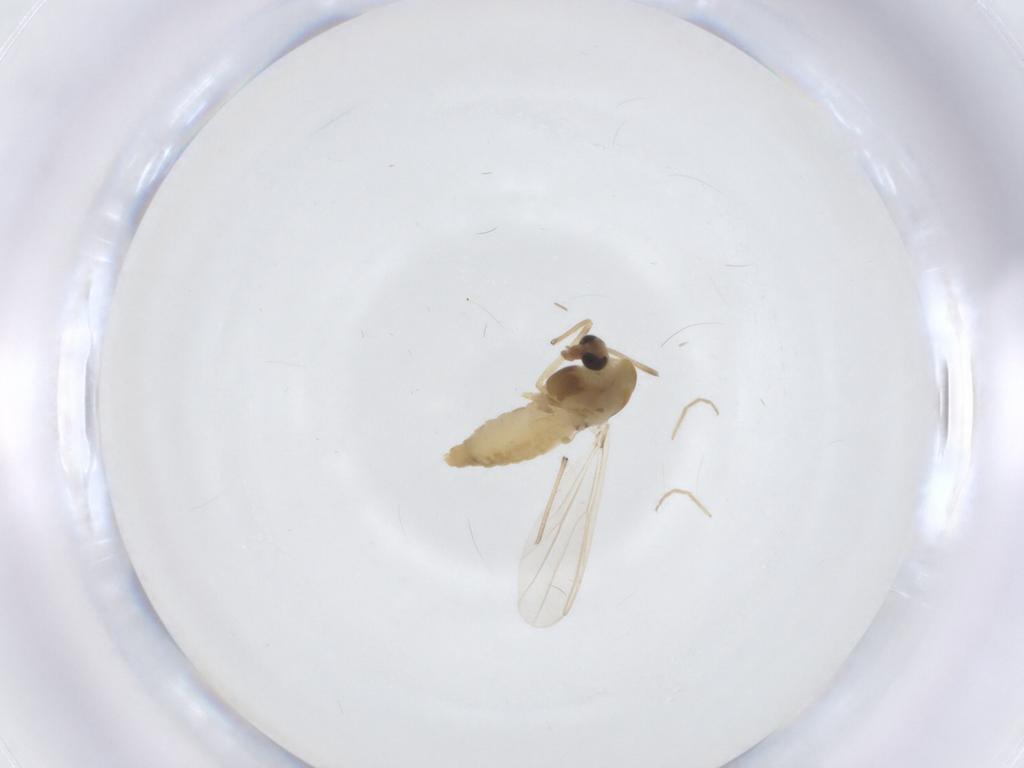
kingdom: Animalia
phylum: Arthropoda
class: Insecta
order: Diptera
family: Chironomidae
